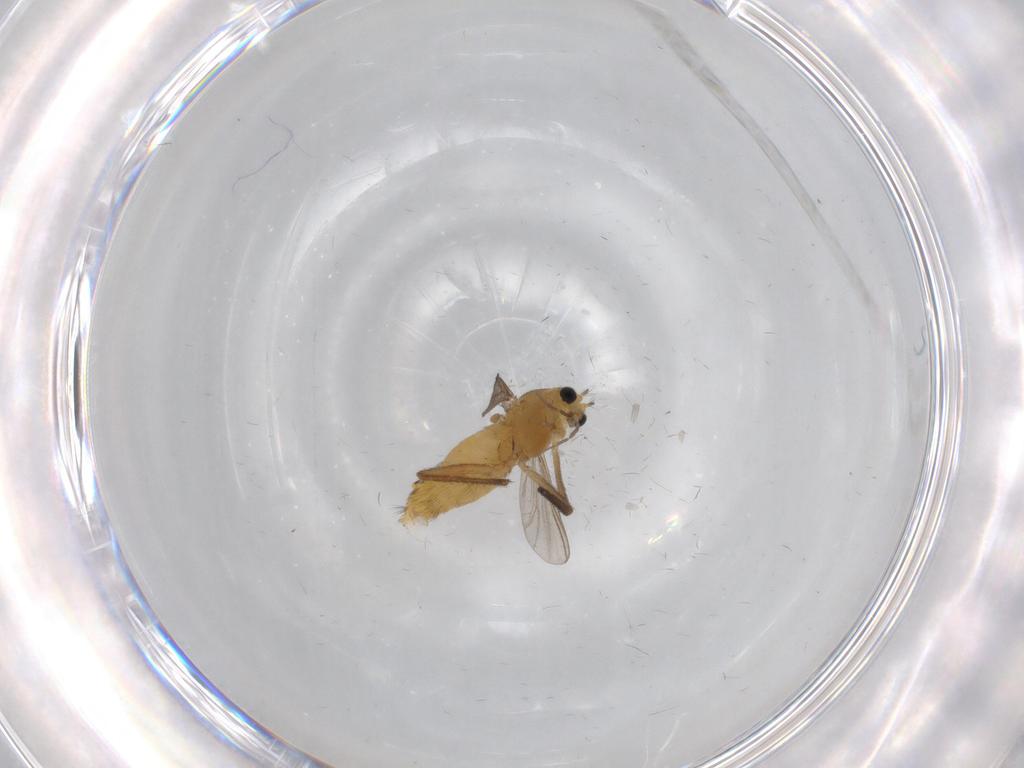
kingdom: Animalia
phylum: Arthropoda
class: Insecta
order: Diptera
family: Chironomidae
